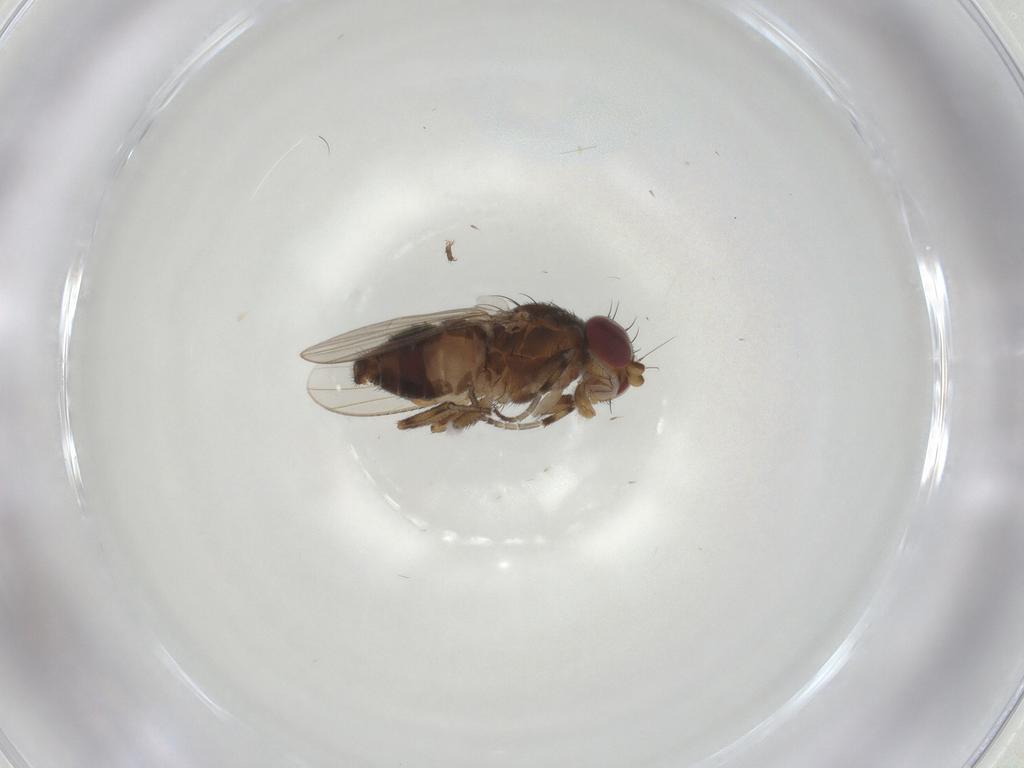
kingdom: Animalia
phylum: Arthropoda
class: Insecta
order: Diptera
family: Heleomyzidae
